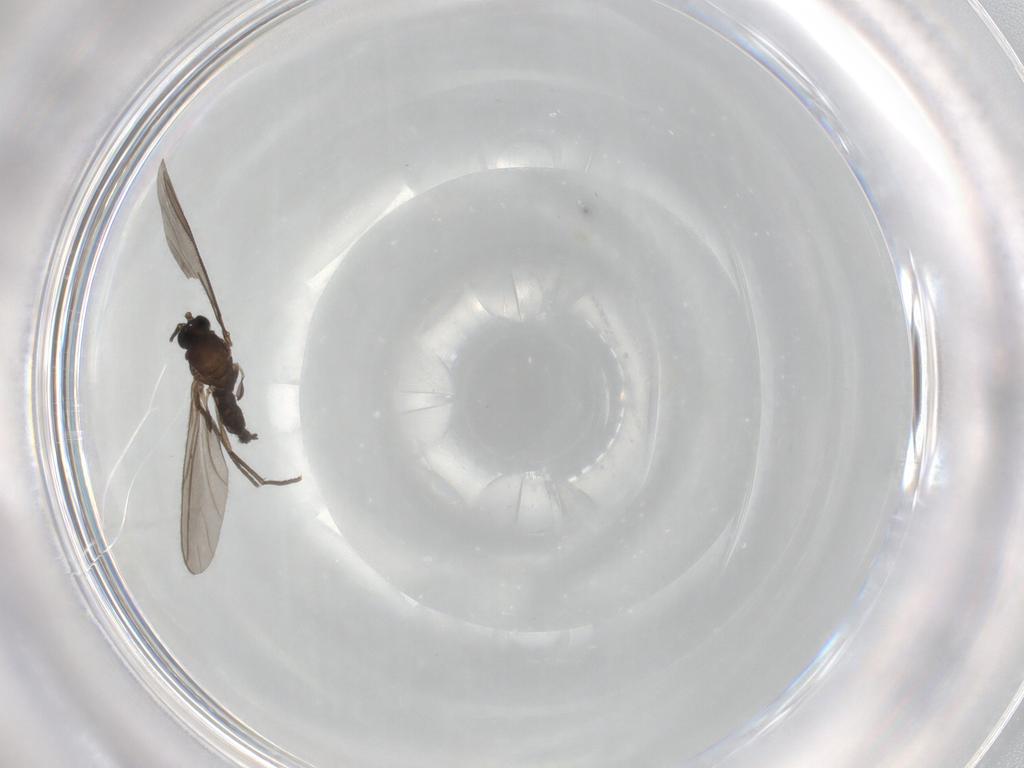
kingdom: Animalia
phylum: Arthropoda
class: Insecta
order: Diptera
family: Sciaridae
